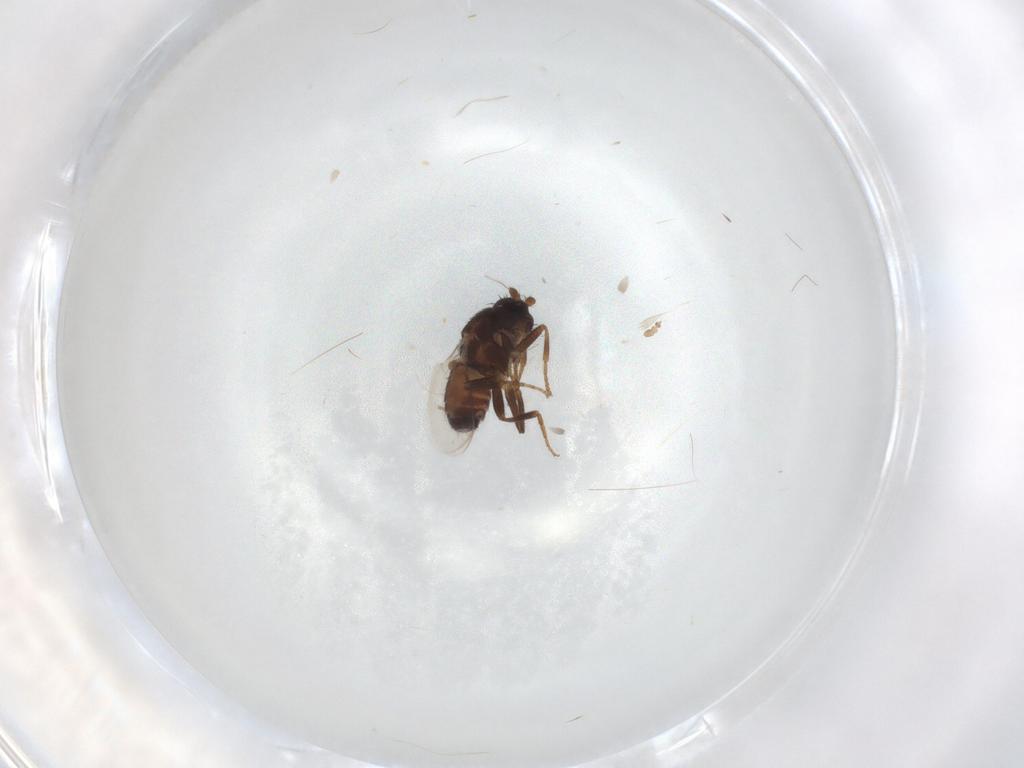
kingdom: Animalia
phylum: Arthropoda
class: Insecta
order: Diptera
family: Sphaeroceridae
